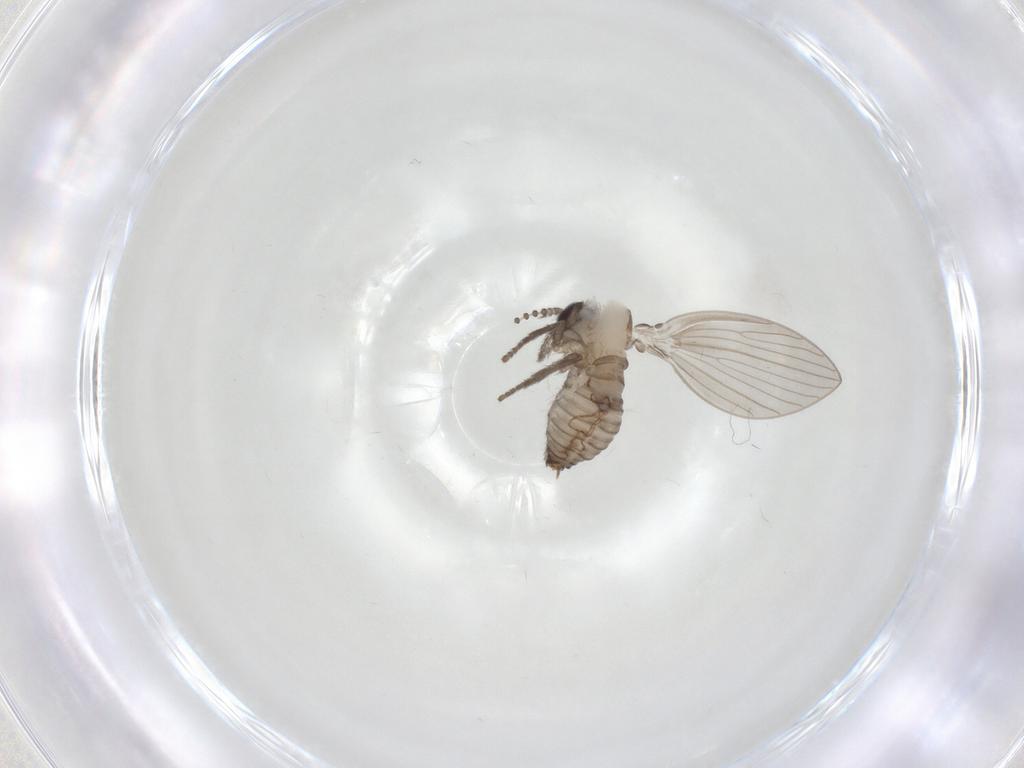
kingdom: Animalia
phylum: Arthropoda
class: Insecta
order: Diptera
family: Psychodidae
